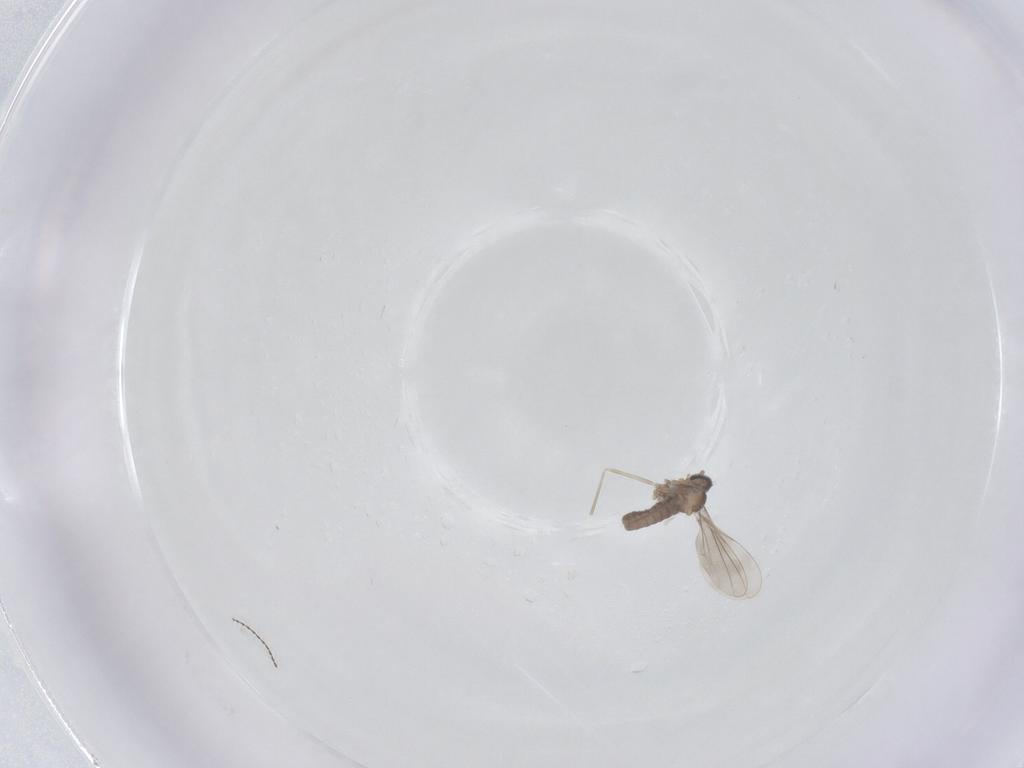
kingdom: Animalia
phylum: Arthropoda
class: Insecta
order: Diptera
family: Ceratopogonidae
